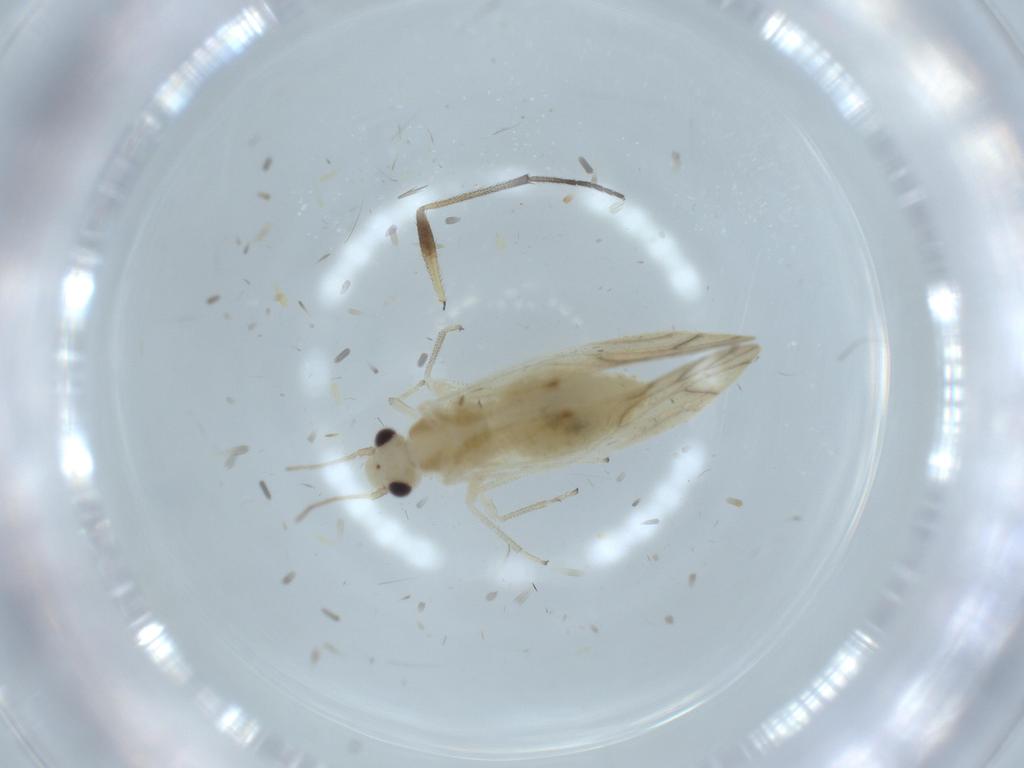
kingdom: Animalia
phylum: Arthropoda
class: Insecta
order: Psocodea
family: Caeciliusidae
